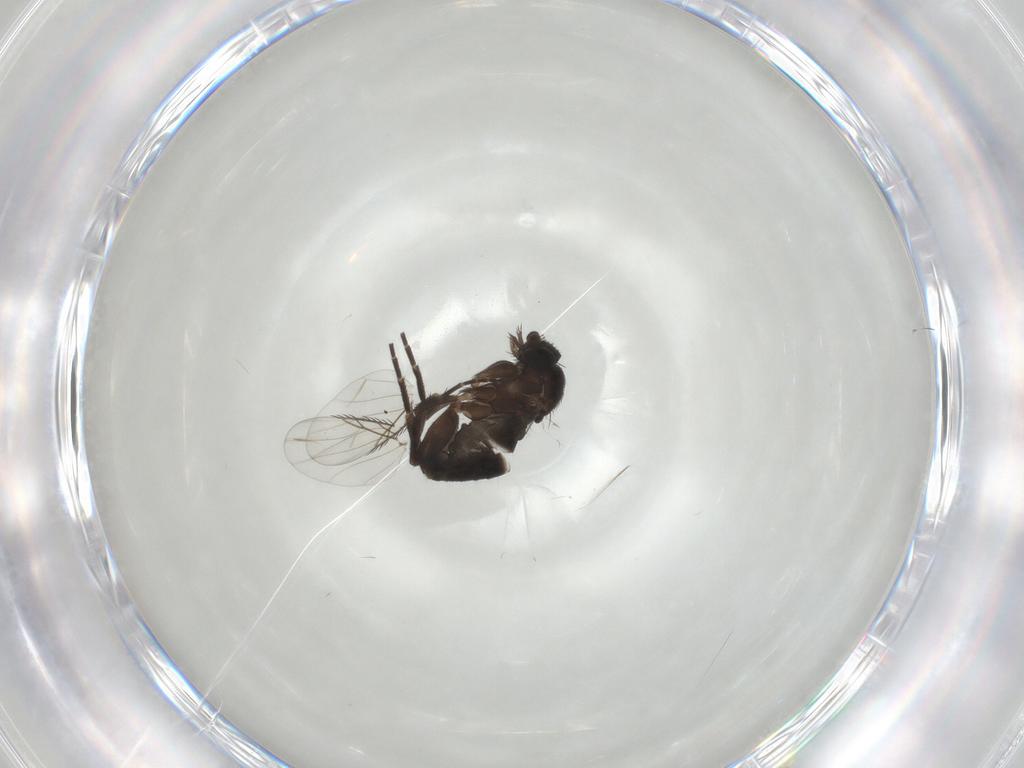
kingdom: Animalia
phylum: Arthropoda
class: Insecta
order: Diptera
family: Phoridae
